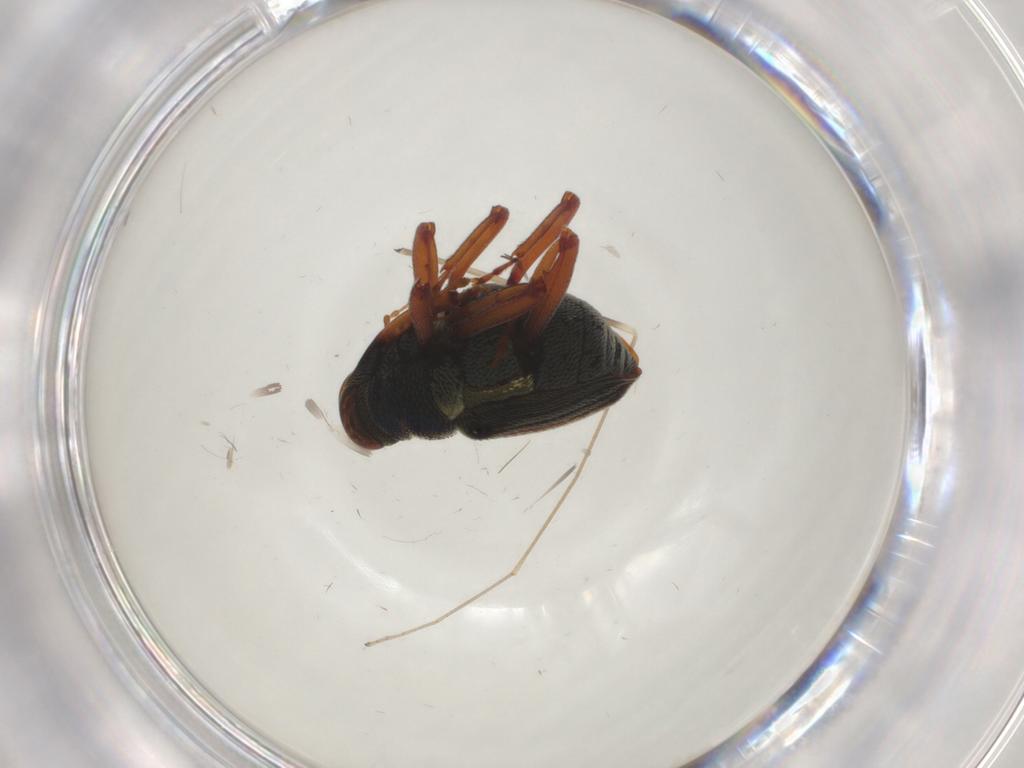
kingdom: Animalia
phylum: Arthropoda
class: Insecta
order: Coleoptera
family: Curculionidae
